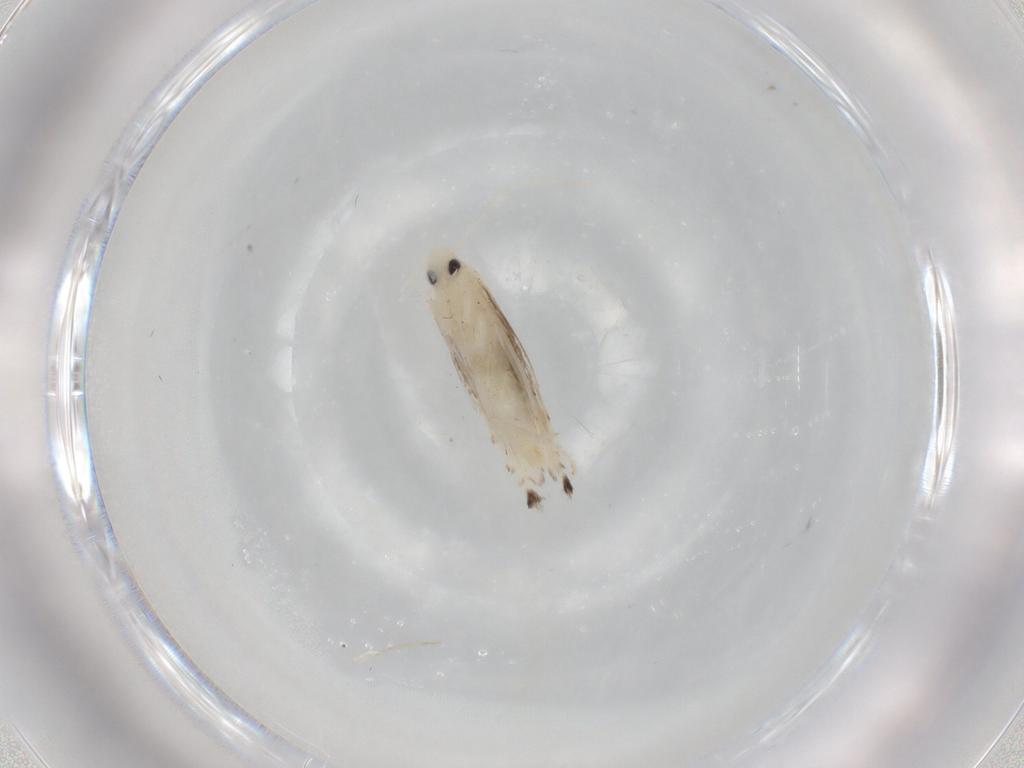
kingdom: Animalia
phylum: Arthropoda
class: Insecta
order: Lepidoptera
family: Gracillariidae
